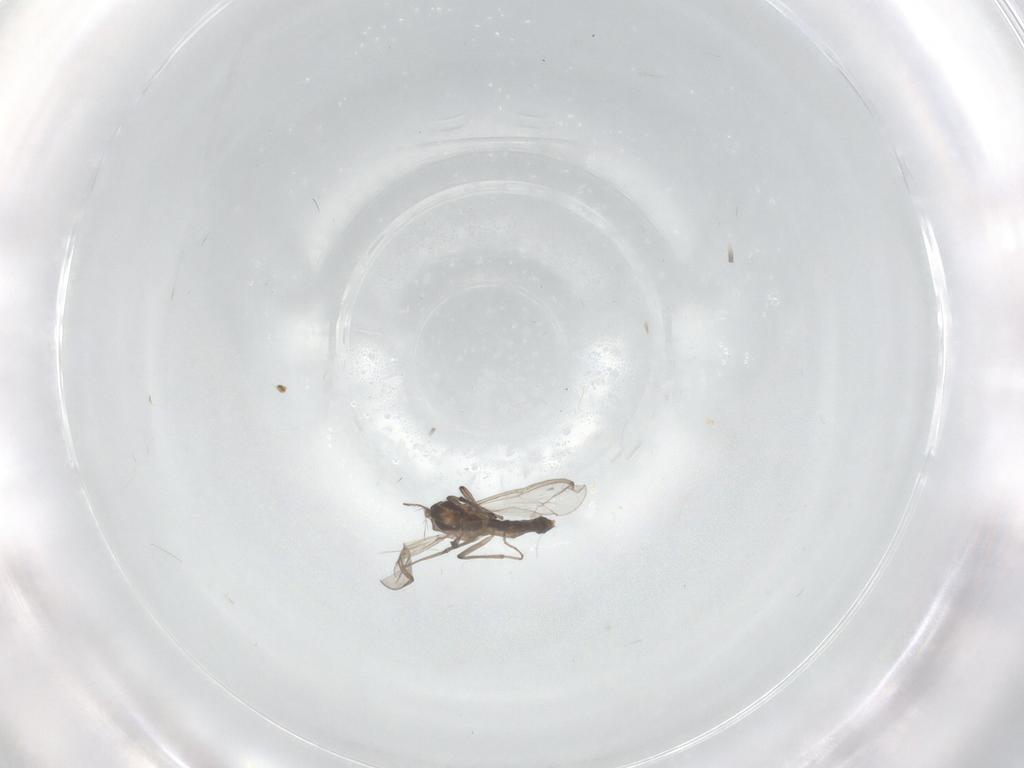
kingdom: Animalia
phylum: Arthropoda
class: Insecta
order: Diptera
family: Chironomidae
